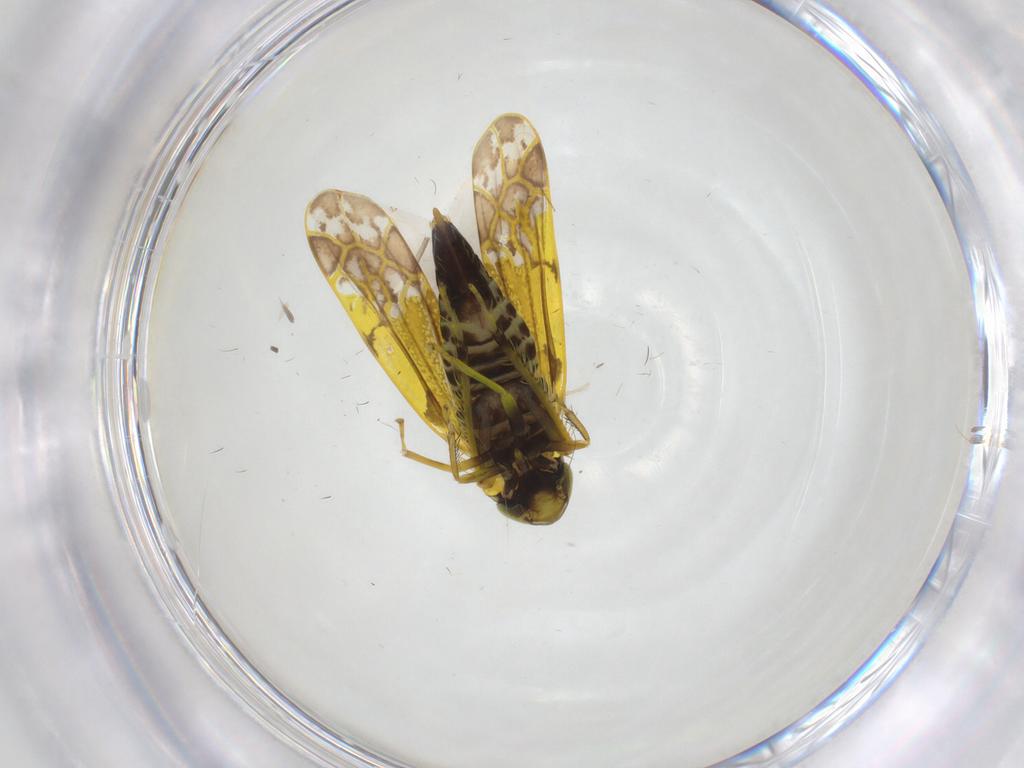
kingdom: Animalia
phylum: Arthropoda
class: Insecta
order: Hemiptera
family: Cicadellidae
